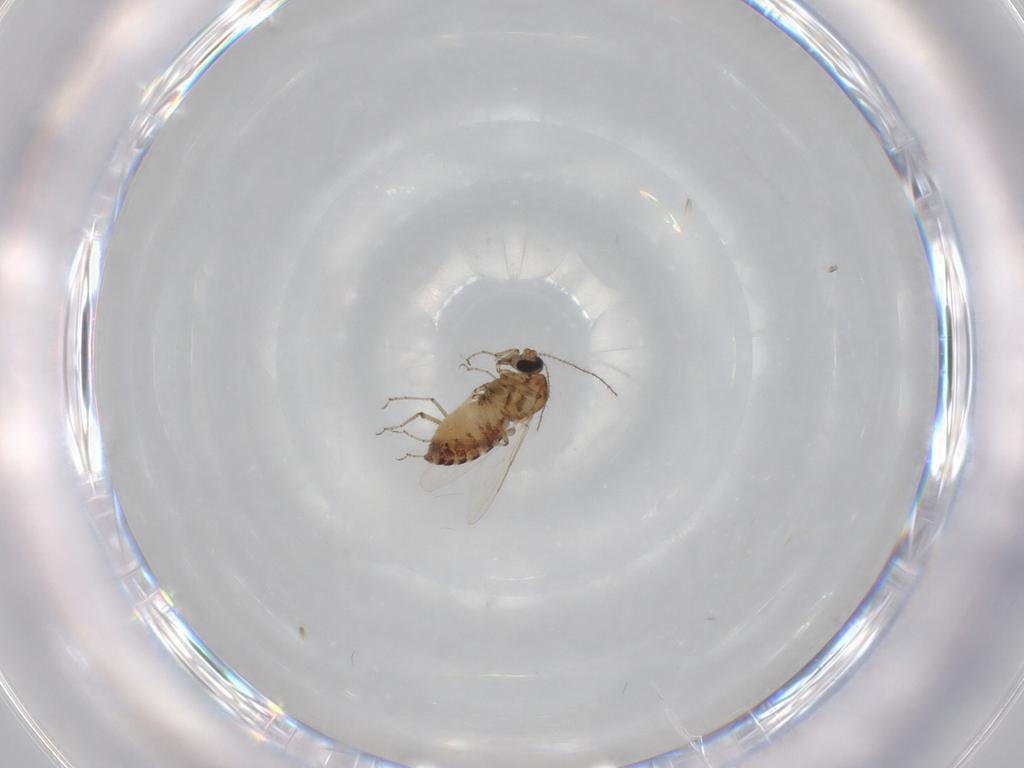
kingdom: Animalia
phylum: Arthropoda
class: Insecta
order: Diptera
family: Ceratopogonidae
